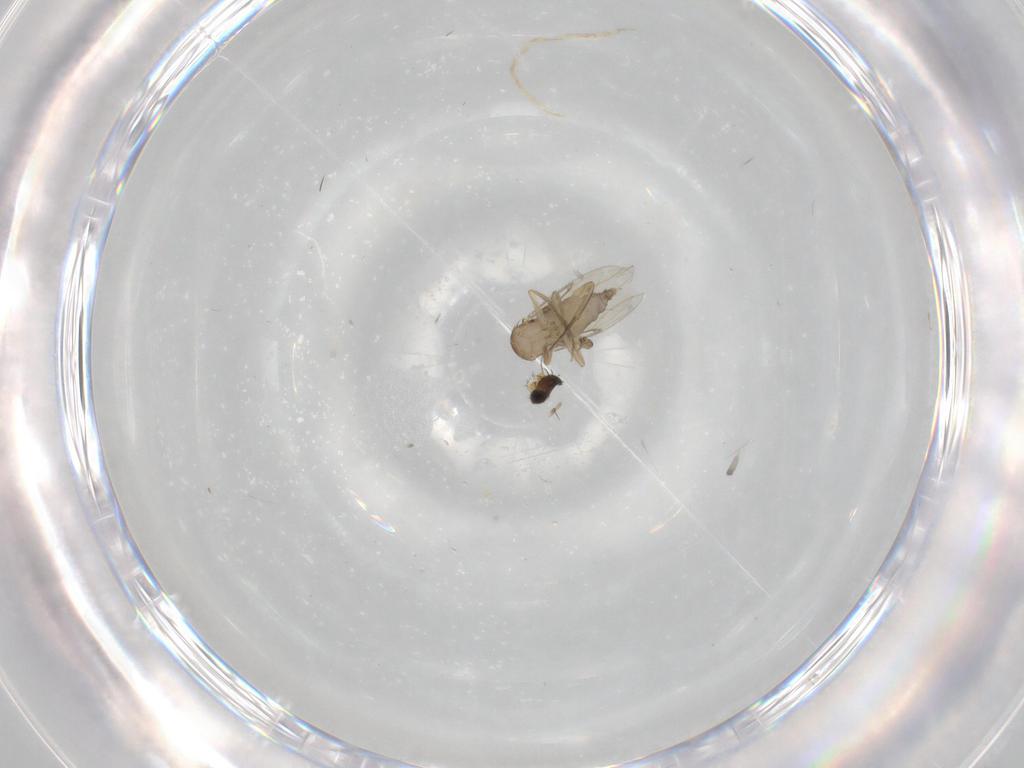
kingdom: Animalia
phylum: Arthropoda
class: Insecta
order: Diptera
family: Phoridae
